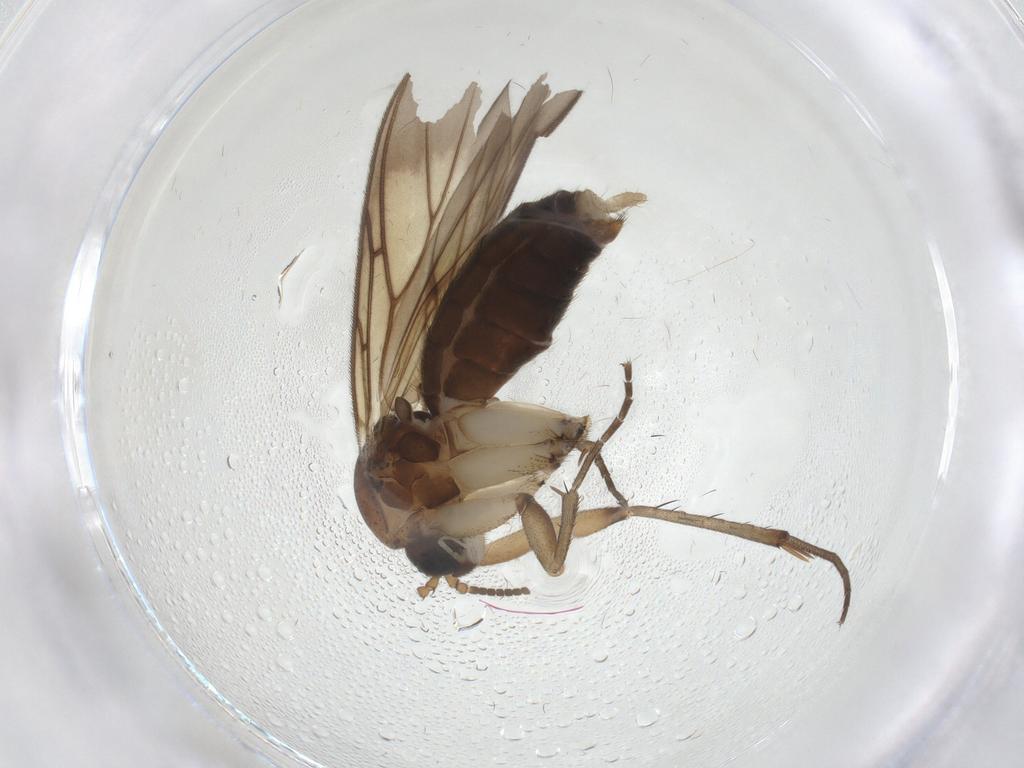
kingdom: Animalia
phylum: Arthropoda
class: Insecta
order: Diptera
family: Mycetophilidae
